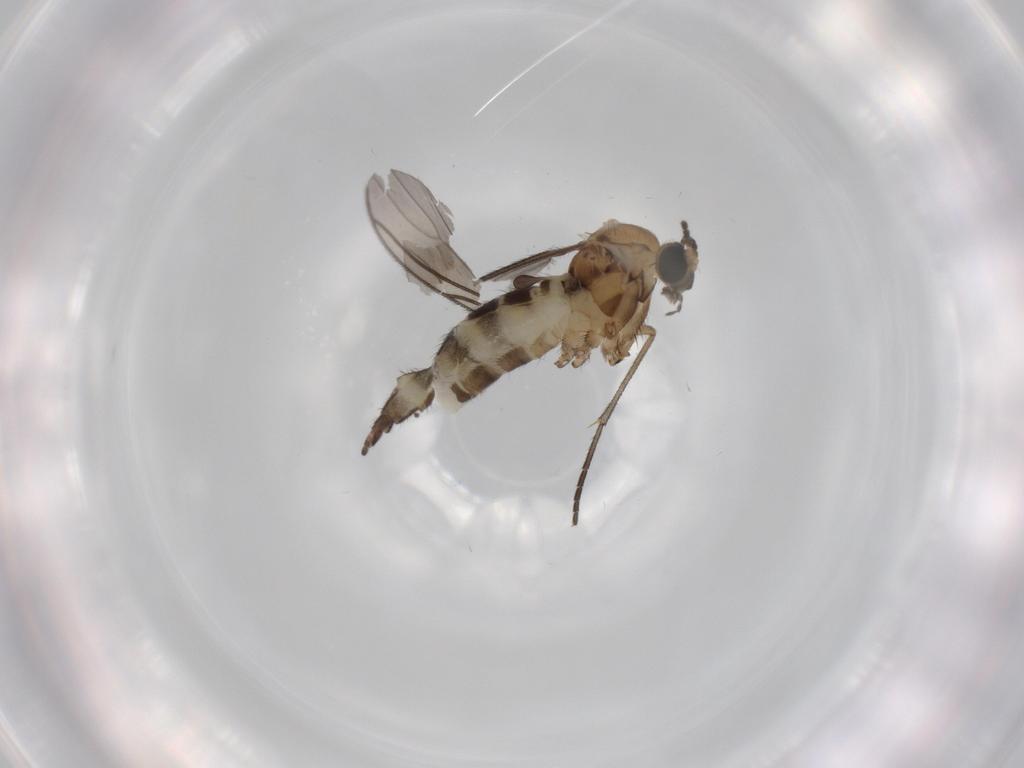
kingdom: Animalia
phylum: Arthropoda
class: Insecta
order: Diptera
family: Sciaridae
